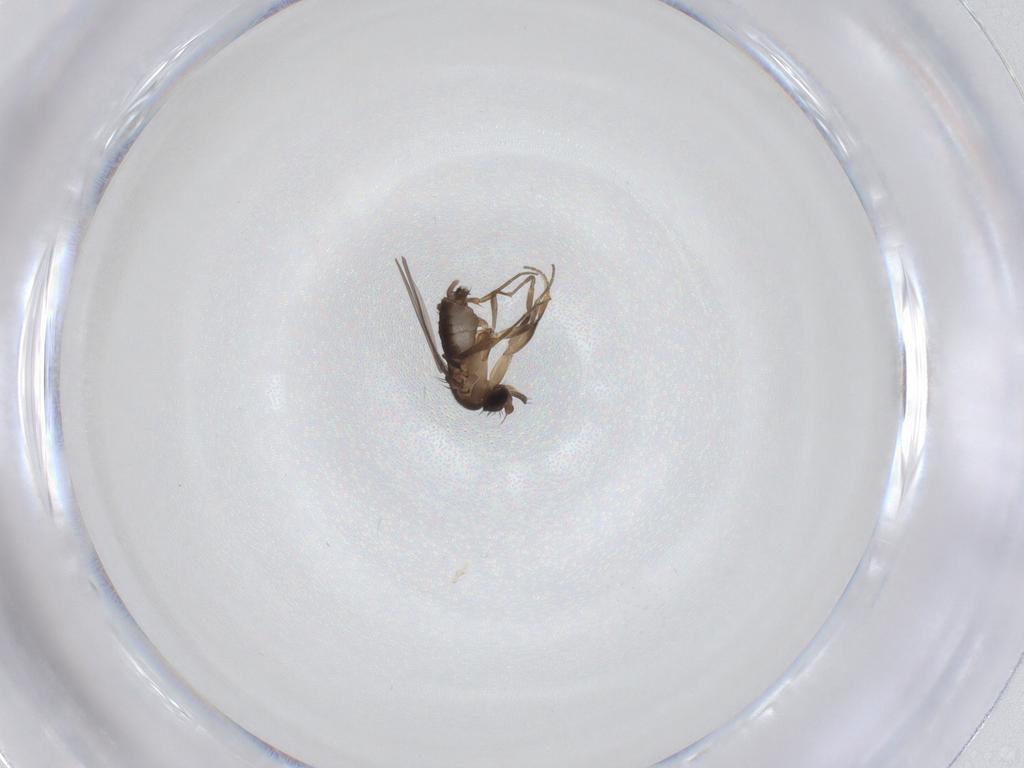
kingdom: Animalia
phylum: Arthropoda
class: Insecta
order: Diptera
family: Phoridae
